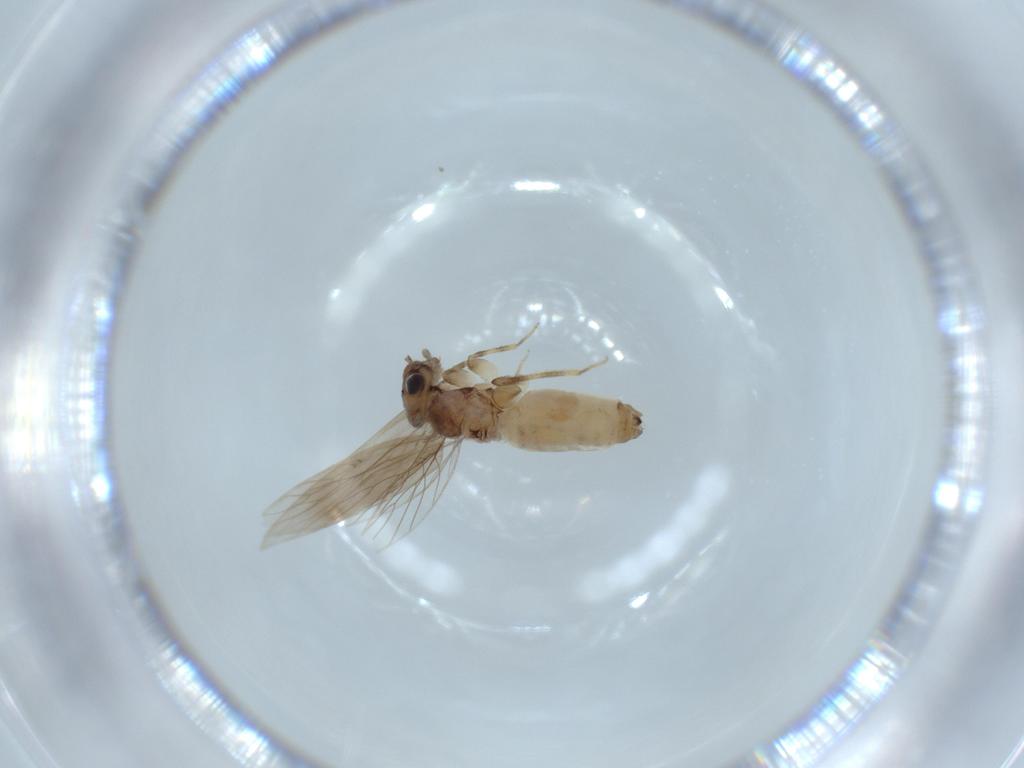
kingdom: Animalia
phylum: Arthropoda
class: Insecta
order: Psocodea
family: Lepidopsocidae
